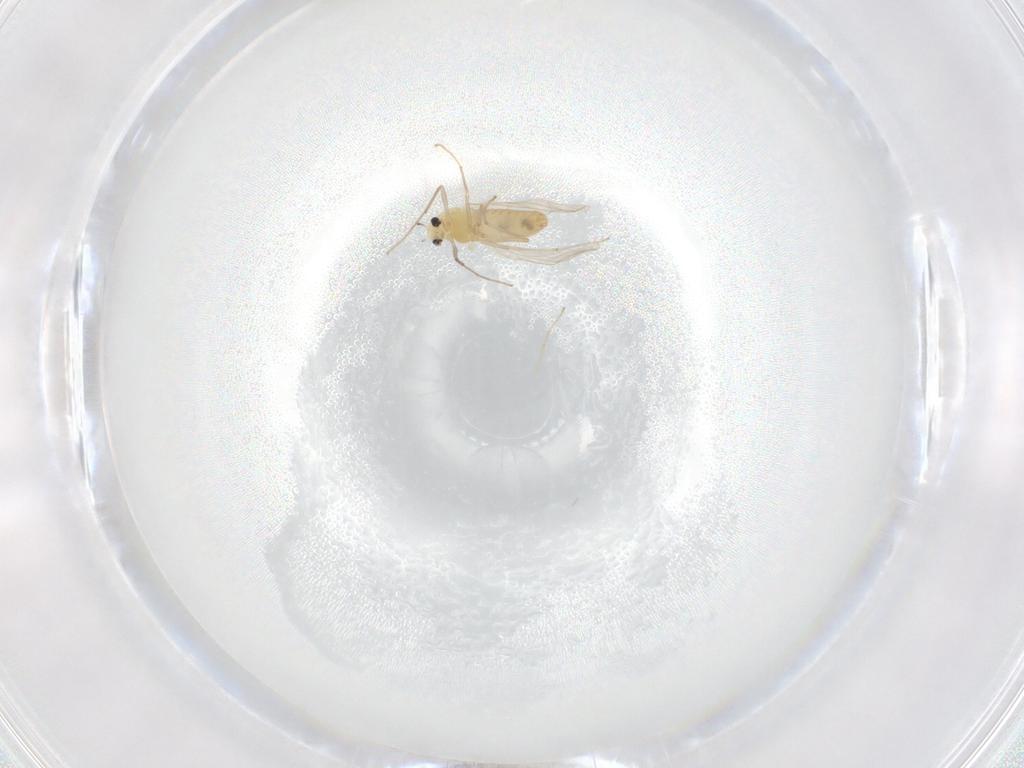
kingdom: Animalia
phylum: Arthropoda
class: Insecta
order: Diptera
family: Chironomidae
